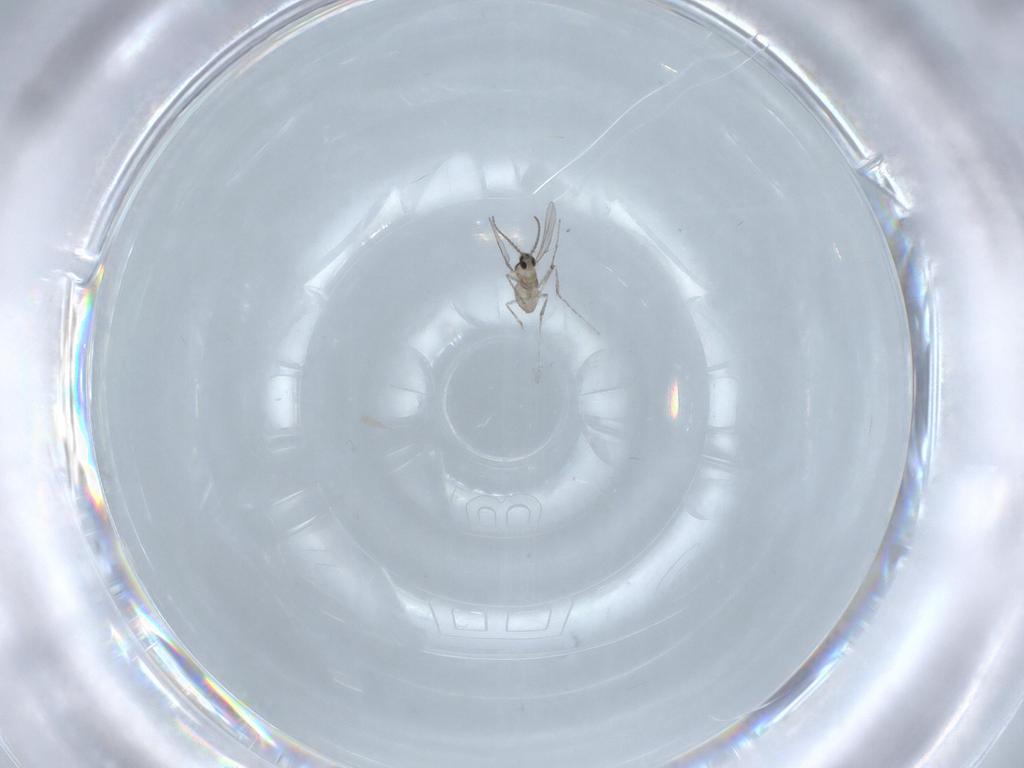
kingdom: Animalia
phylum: Arthropoda
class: Insecta
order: Diptera
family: Cecidomyiidae
